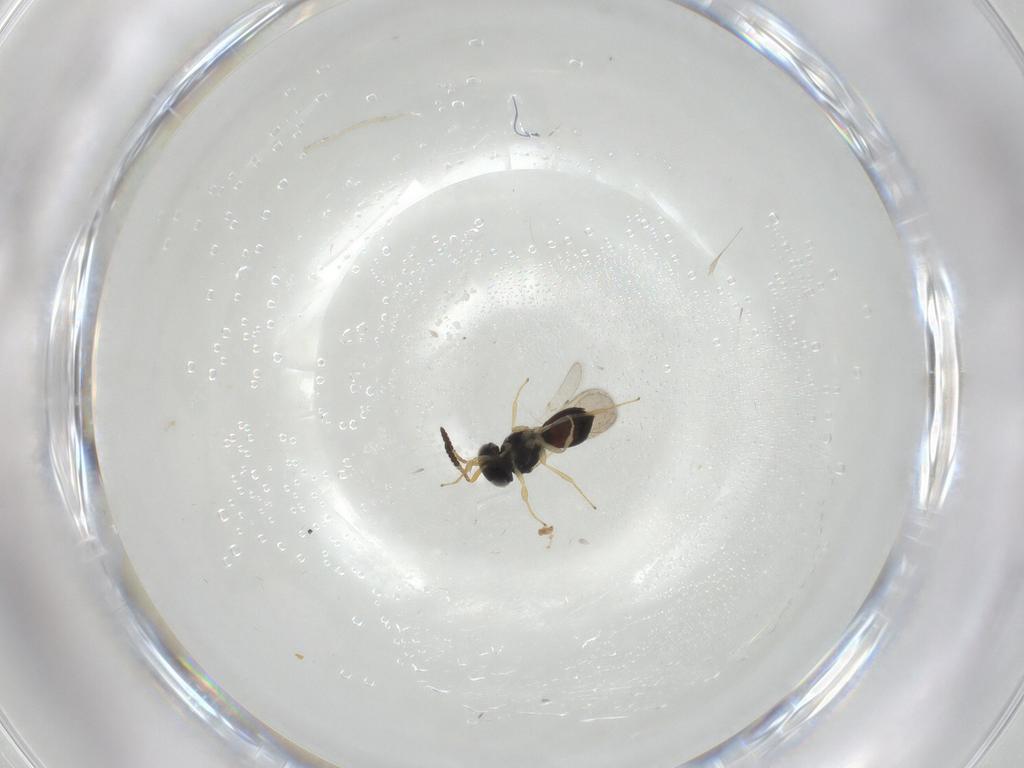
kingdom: Animalia
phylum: Arthropoda
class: Insecta
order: Hymenoptera
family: Scelionidae
